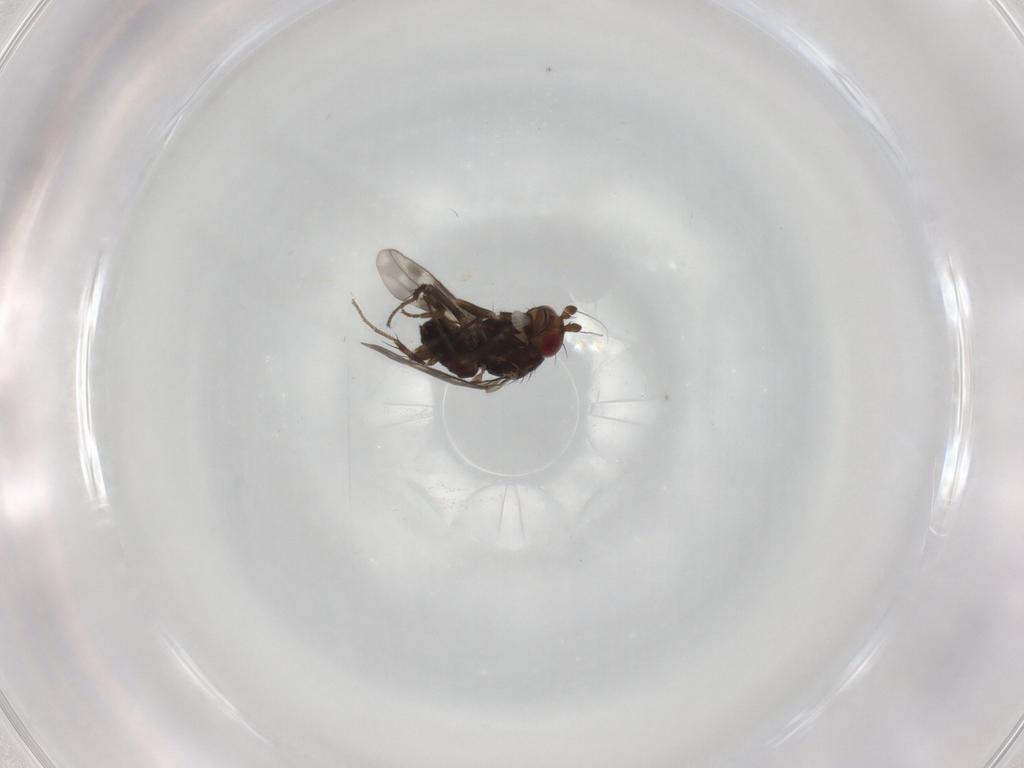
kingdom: Animalia
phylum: Arthropoda
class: Insecta
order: Diptera
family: Sphaeroceridae
